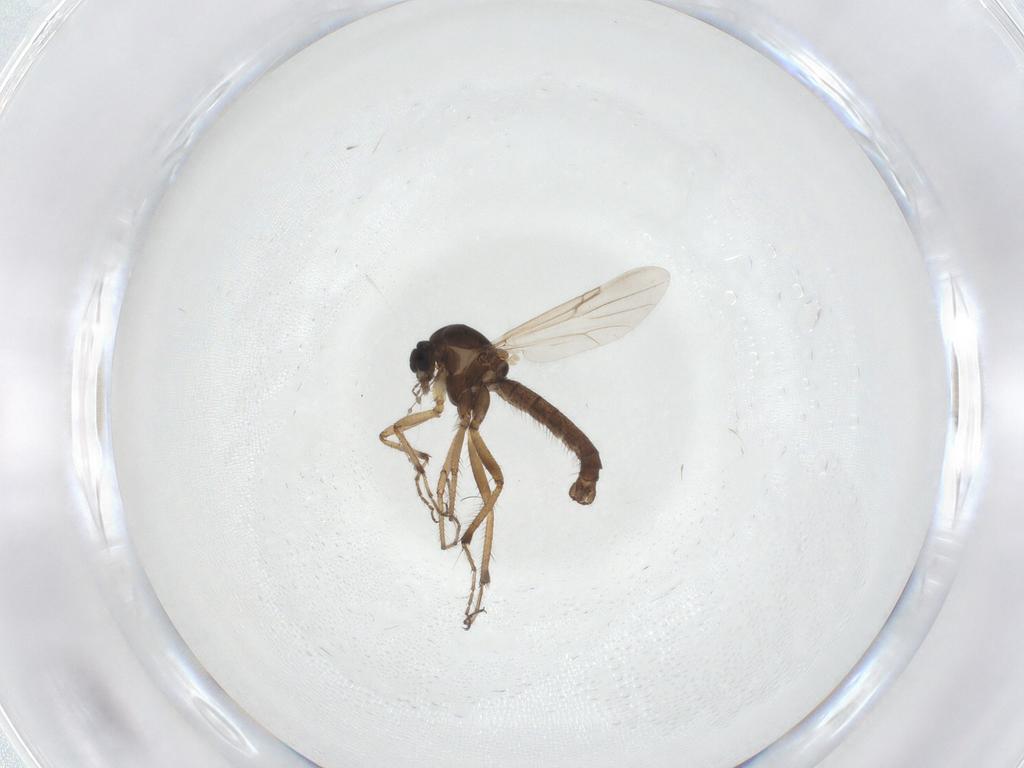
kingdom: Animalia
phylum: Arthropoda
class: Insecta
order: Diptera
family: Ceratopogonidae
